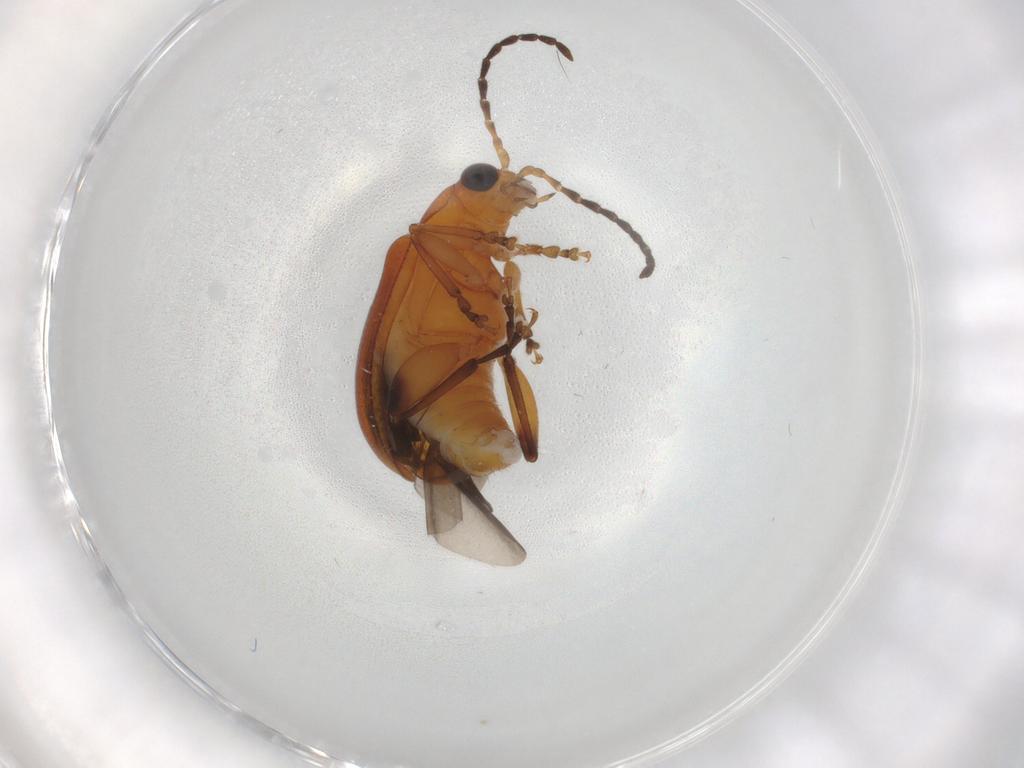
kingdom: Animalia
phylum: Arthropoda
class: Insecta
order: Coleoptera
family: Chrysomelidae
